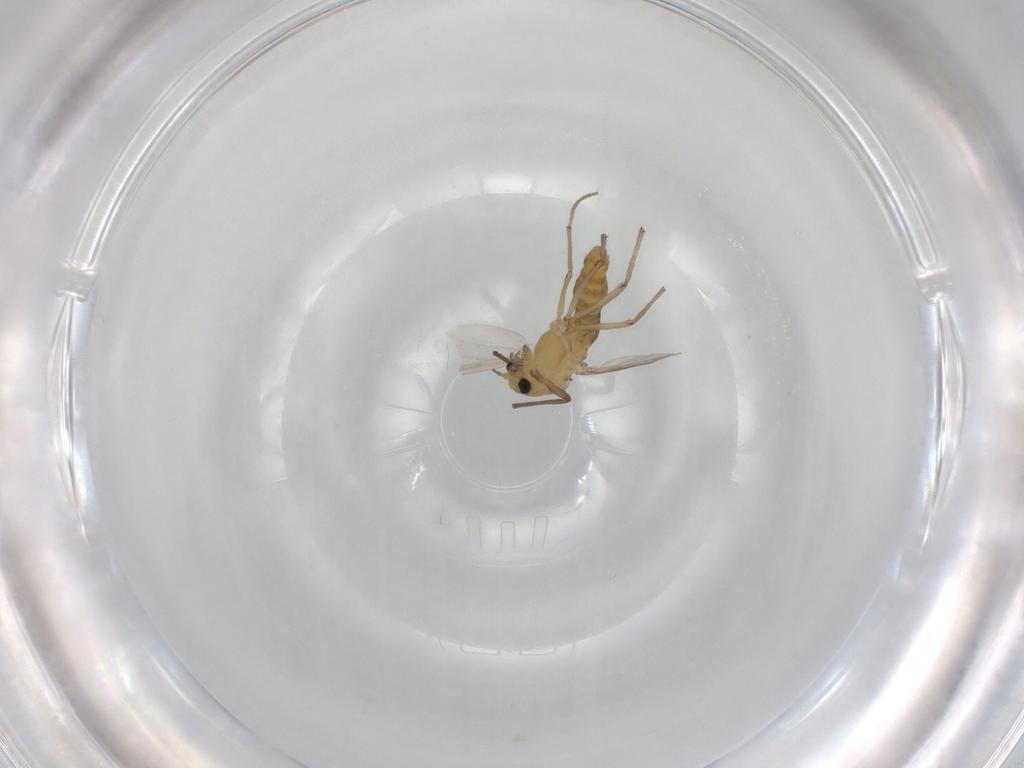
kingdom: Animalia
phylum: Arthropoda
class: Insecta
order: Diptera
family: Chironomidae
